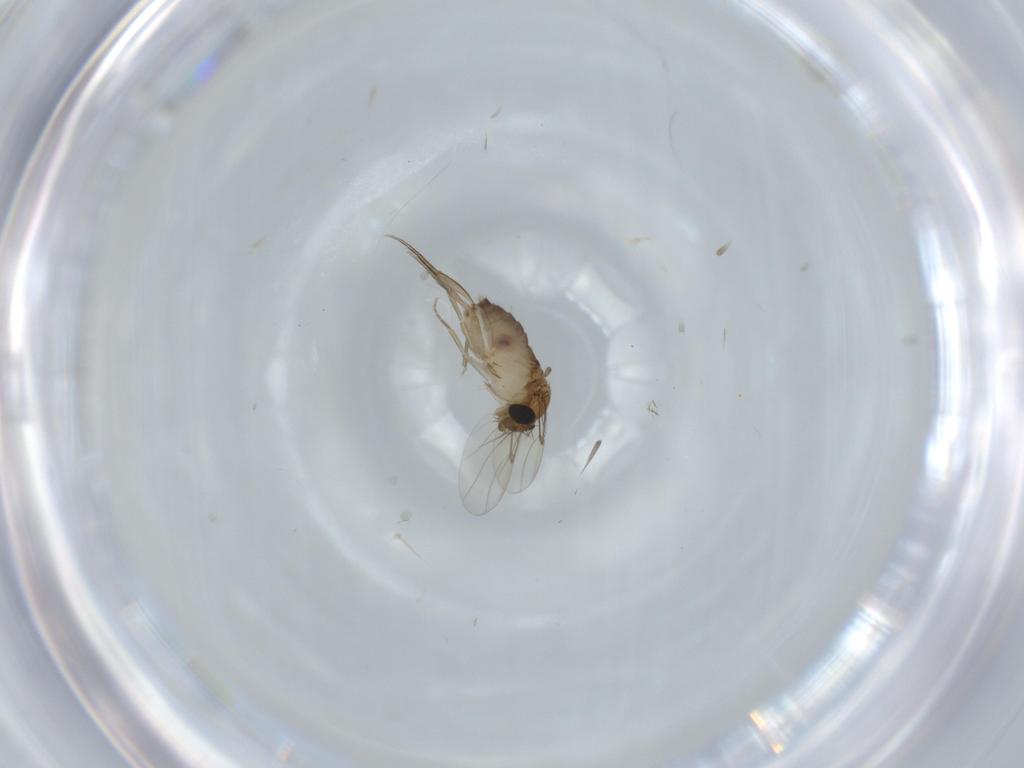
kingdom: Animalia
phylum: Arthropoda
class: Insecta
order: Diptera
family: Phoridae
